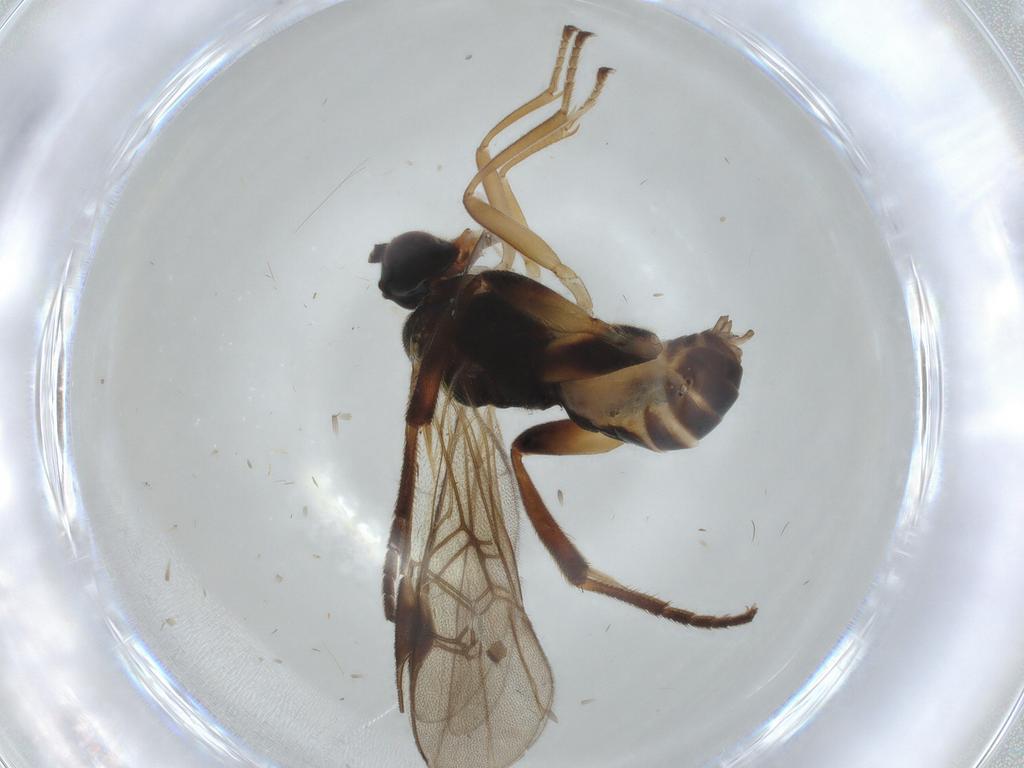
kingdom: Animalia
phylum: Arthropoda
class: Insecta
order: Hymenoptera
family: Braconidae
